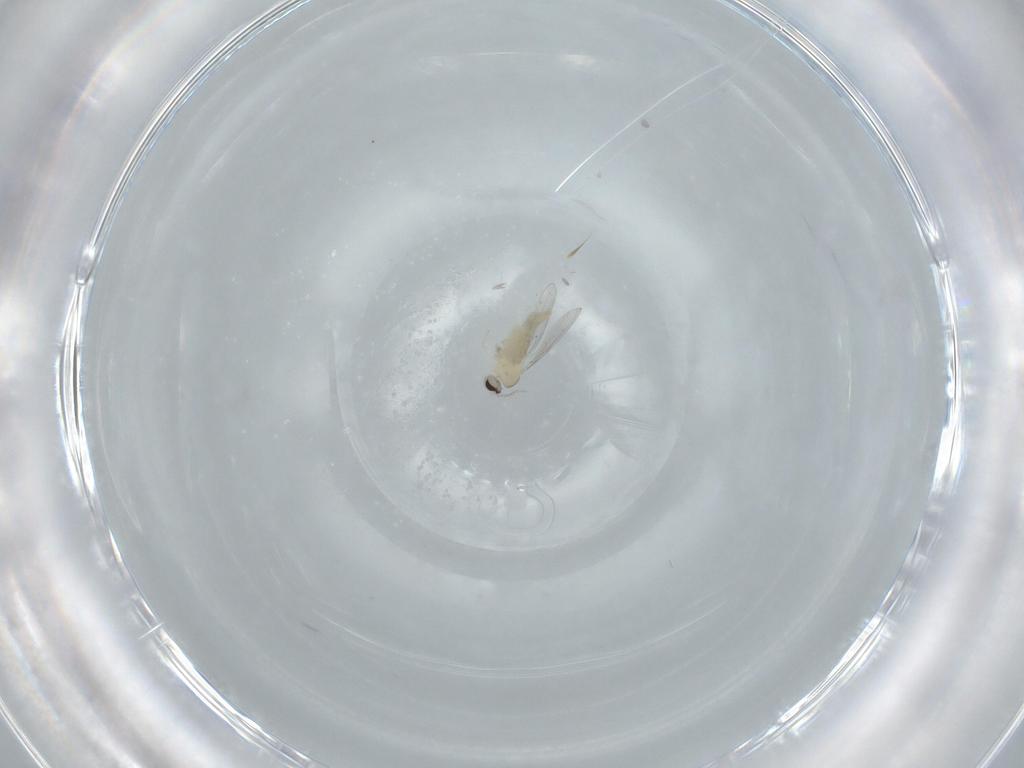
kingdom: Animalia
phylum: Arthropoda
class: Insecta
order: Diptera
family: Cecidomyiidae
